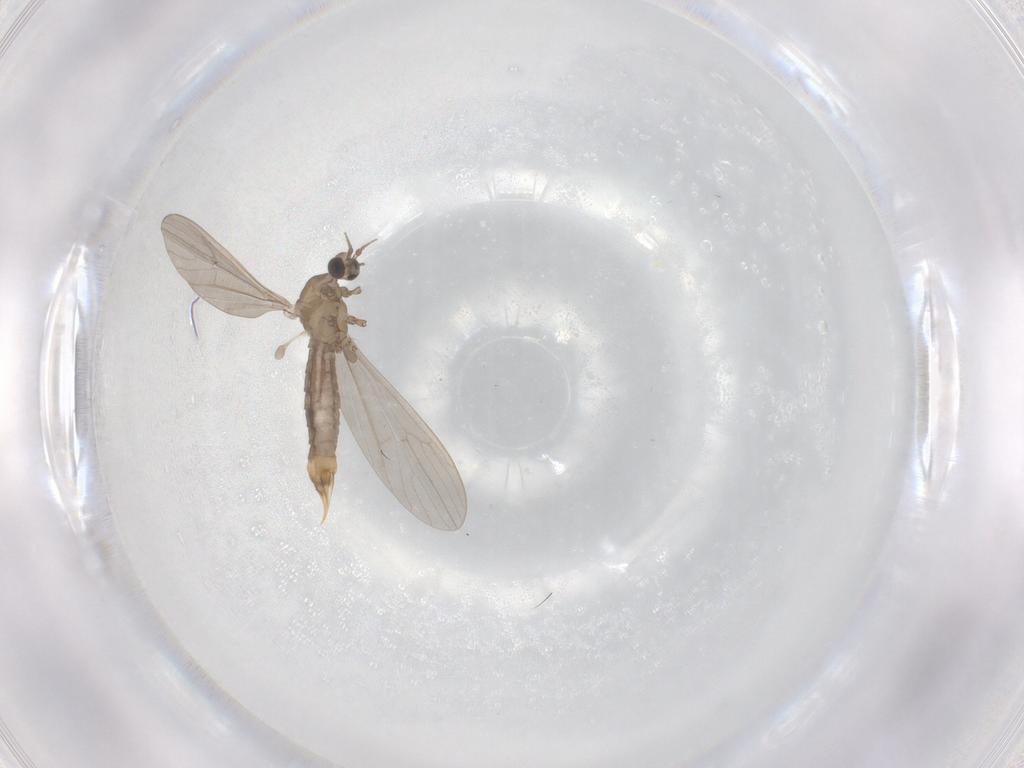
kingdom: Animalia
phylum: Arthropoda
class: Insecta
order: Diptera
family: Limoniidae
